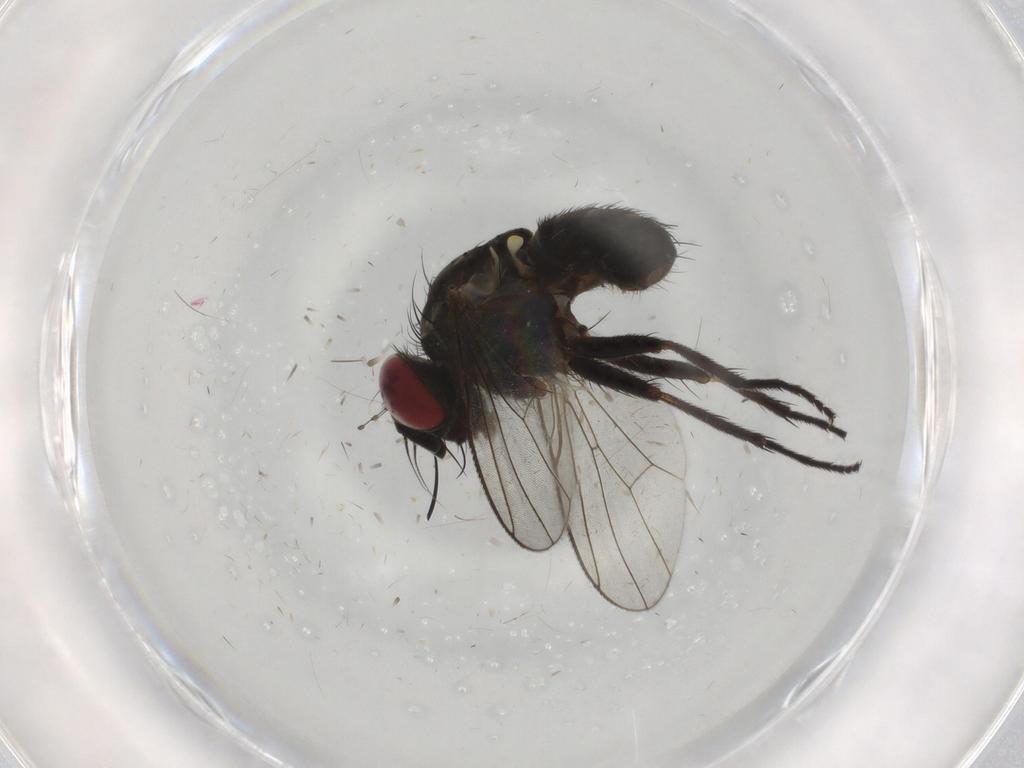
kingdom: Animalia
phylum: Arthropoda
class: Insecta
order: Diptera
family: Muscidae
